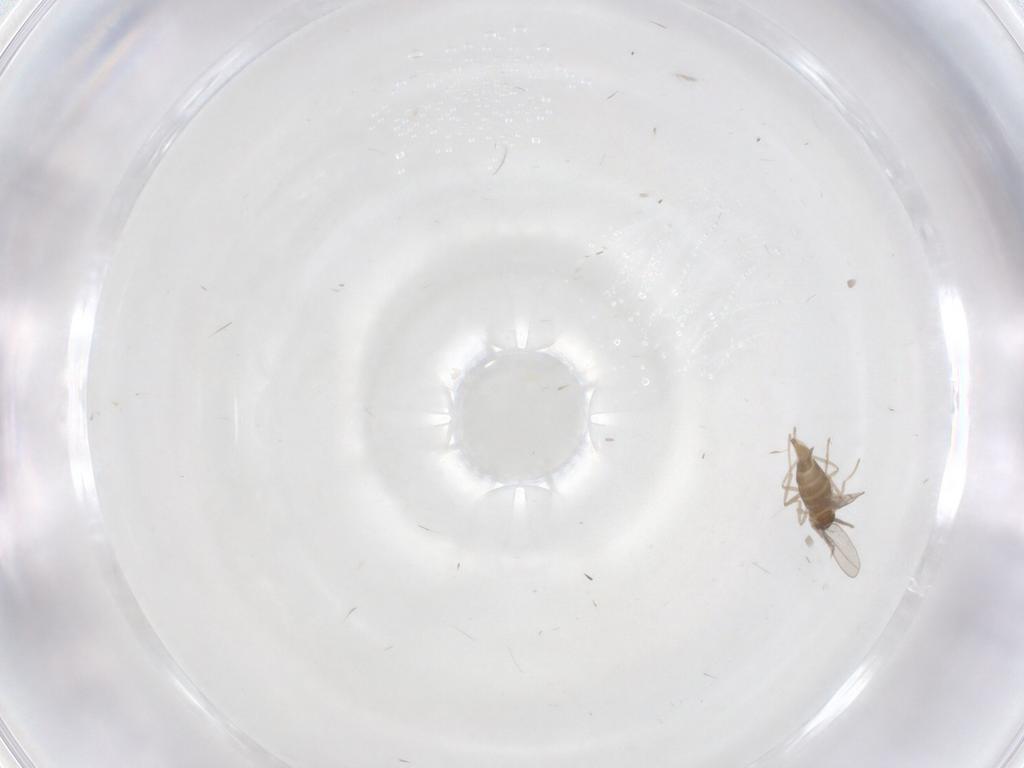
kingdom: Animalia
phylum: Arthropoda
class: Insecta
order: Diptera
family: Cecidomyiidae
